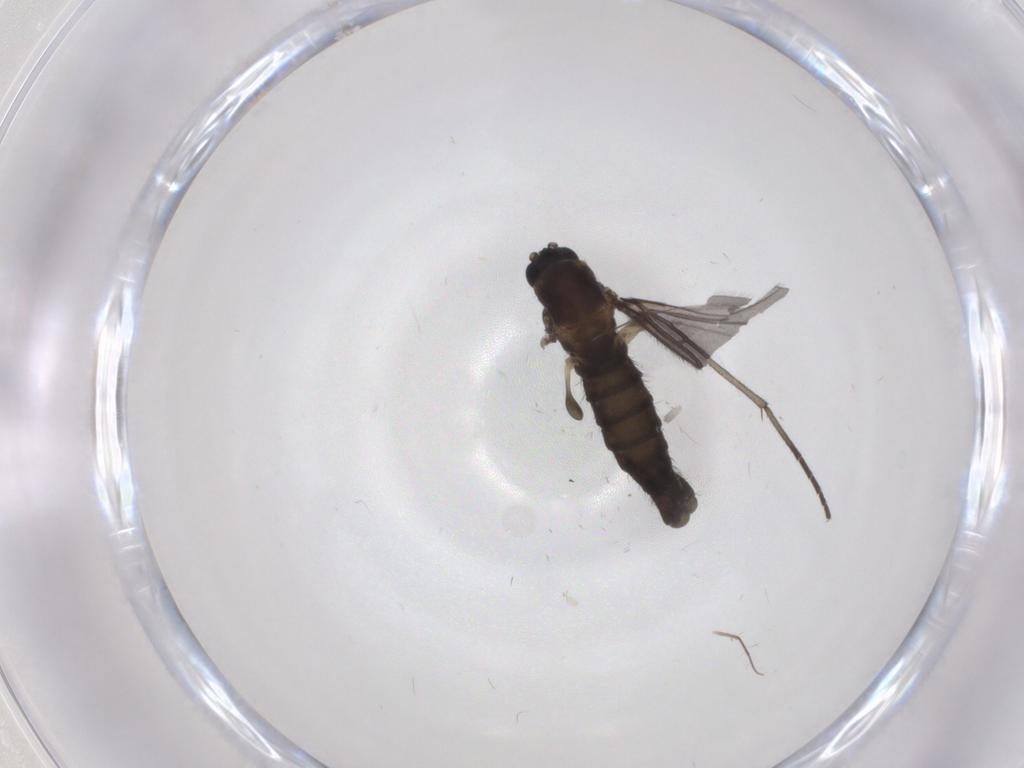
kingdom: Animalia
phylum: Arthropoda
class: Insecta
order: Diptera
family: Sciaridae
